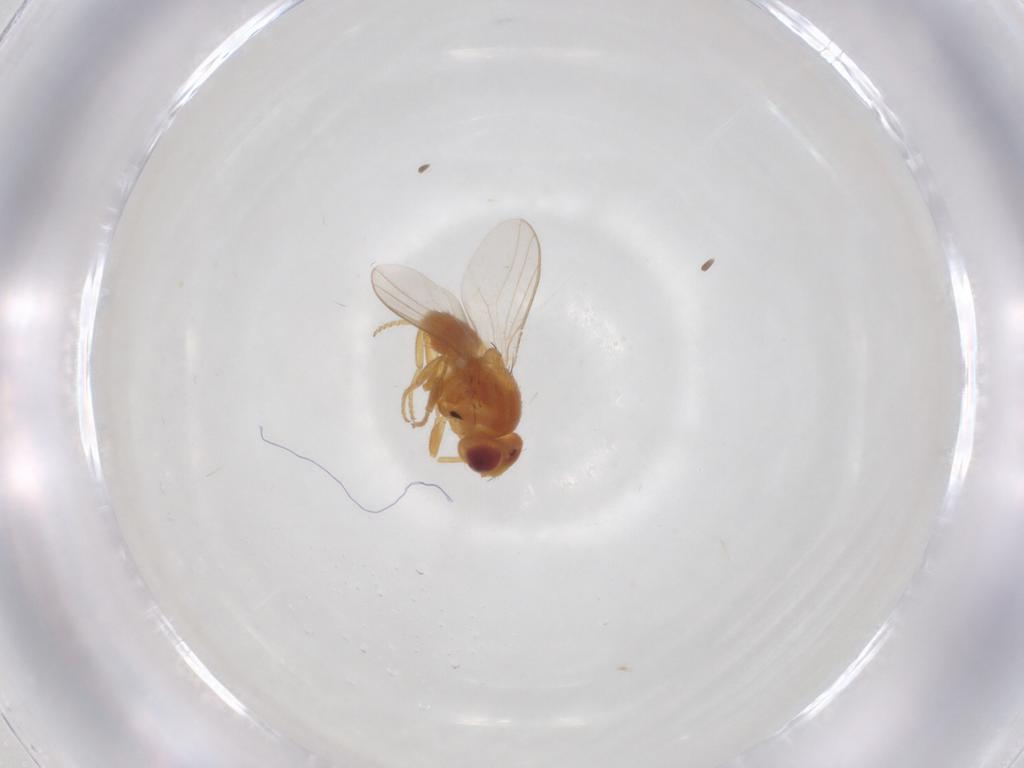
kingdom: Animalia
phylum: Arthropoda
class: Insecta
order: Diptera
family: Chloropidae
